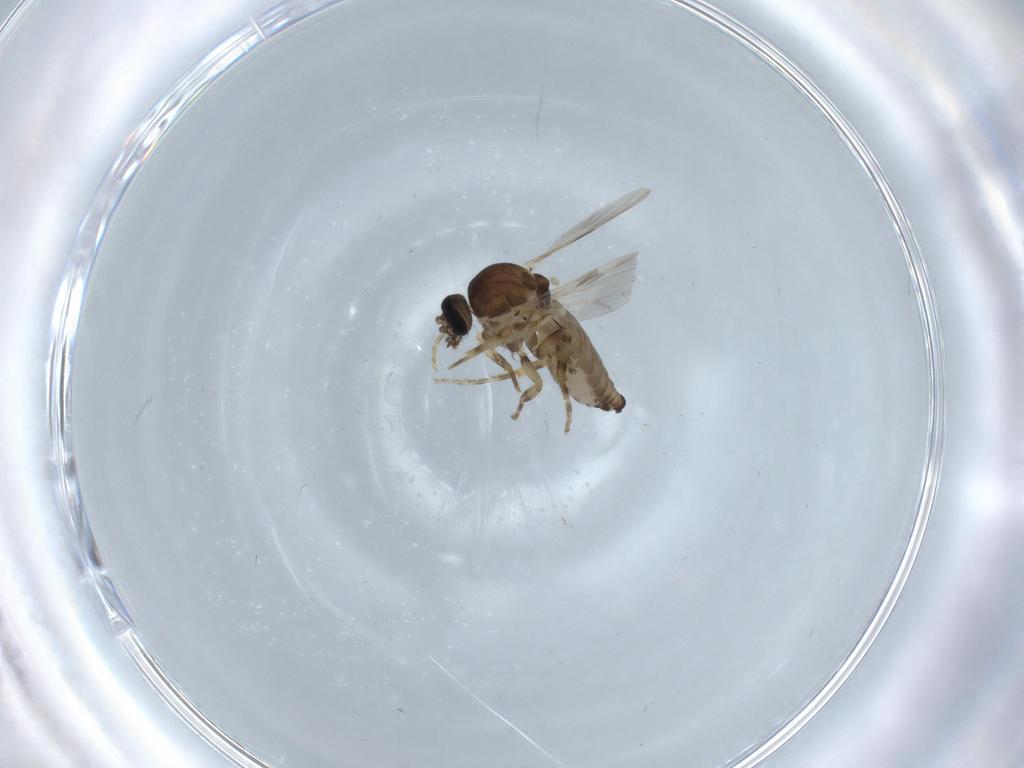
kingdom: Animalia
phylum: Arthropoda
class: Insecta
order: Diptera
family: Ceratopogonidae
